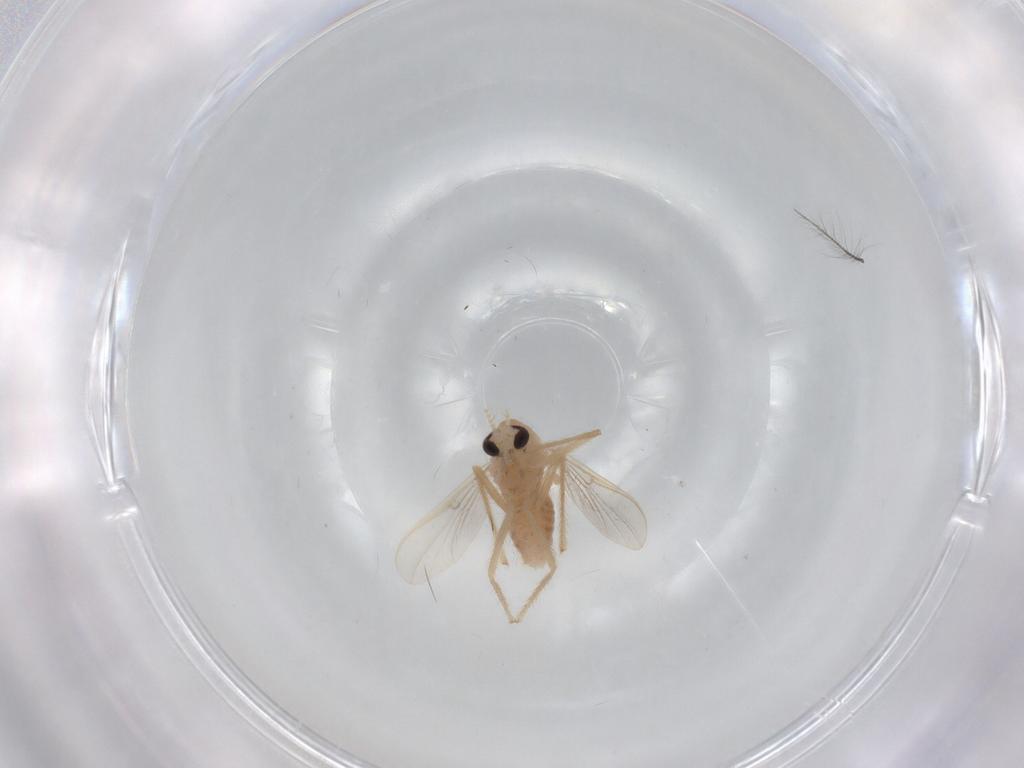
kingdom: Animalia
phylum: Arthropoda
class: Insecta
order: Diptera
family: Chironomidae
